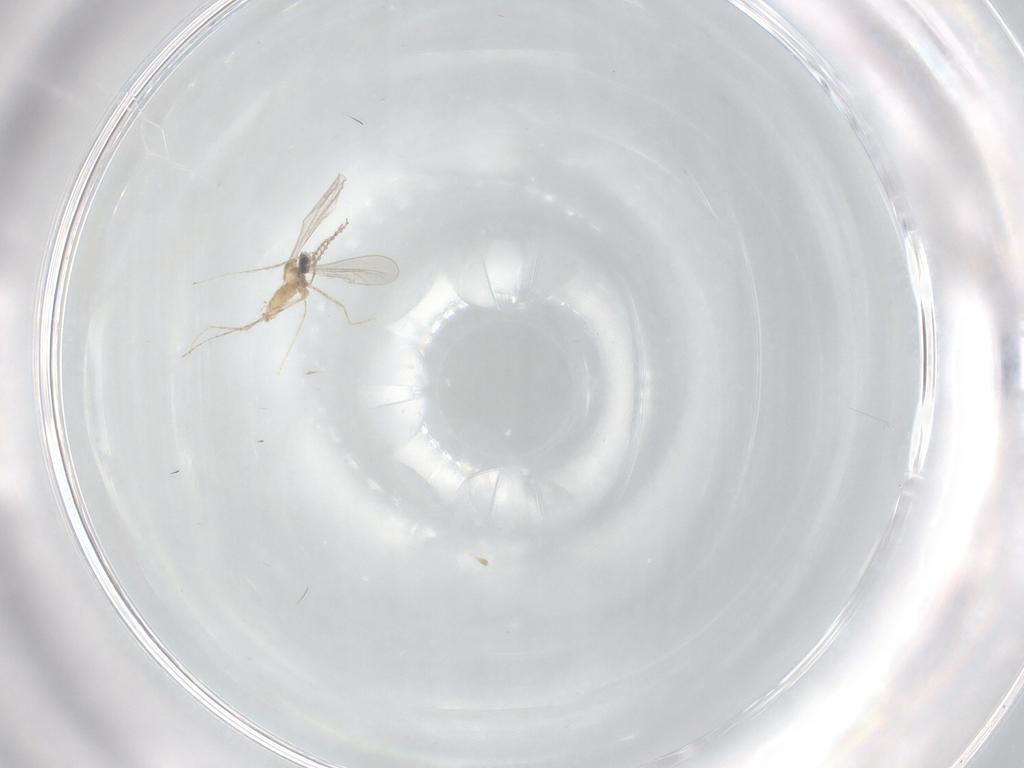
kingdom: Animalia
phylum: Arthropoda
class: Insecta
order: Diptera
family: Cecidomyiidae
